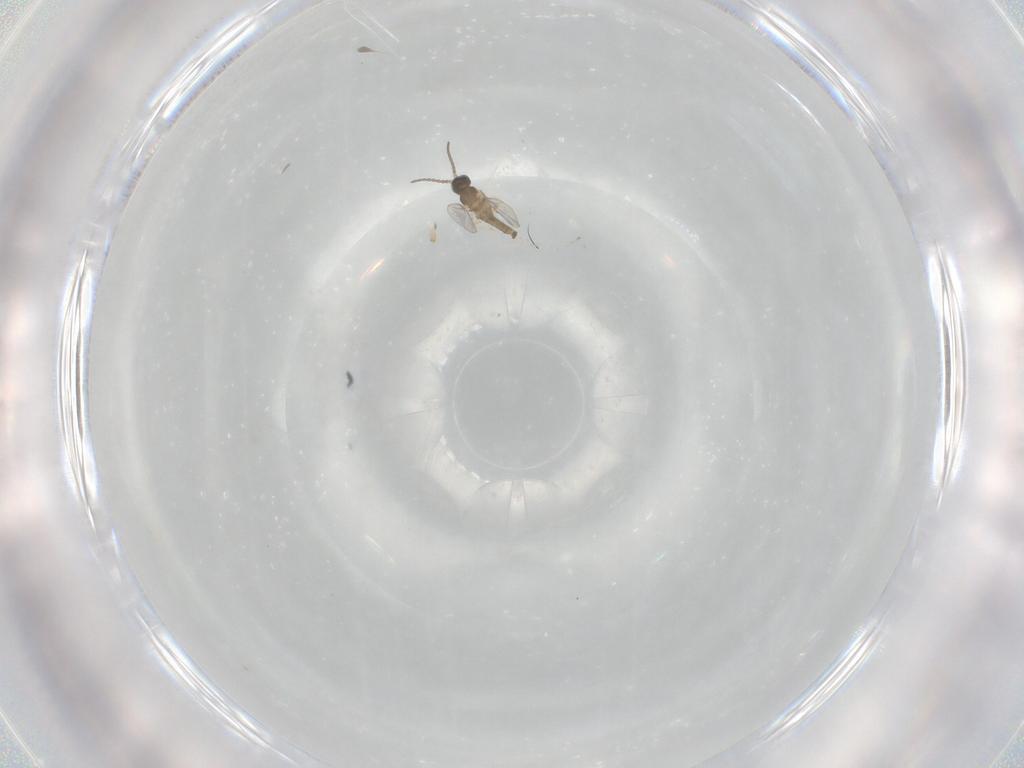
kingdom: Animalia
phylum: Arthropoda
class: Insecta
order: Diptera
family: Cecidomyiidae
